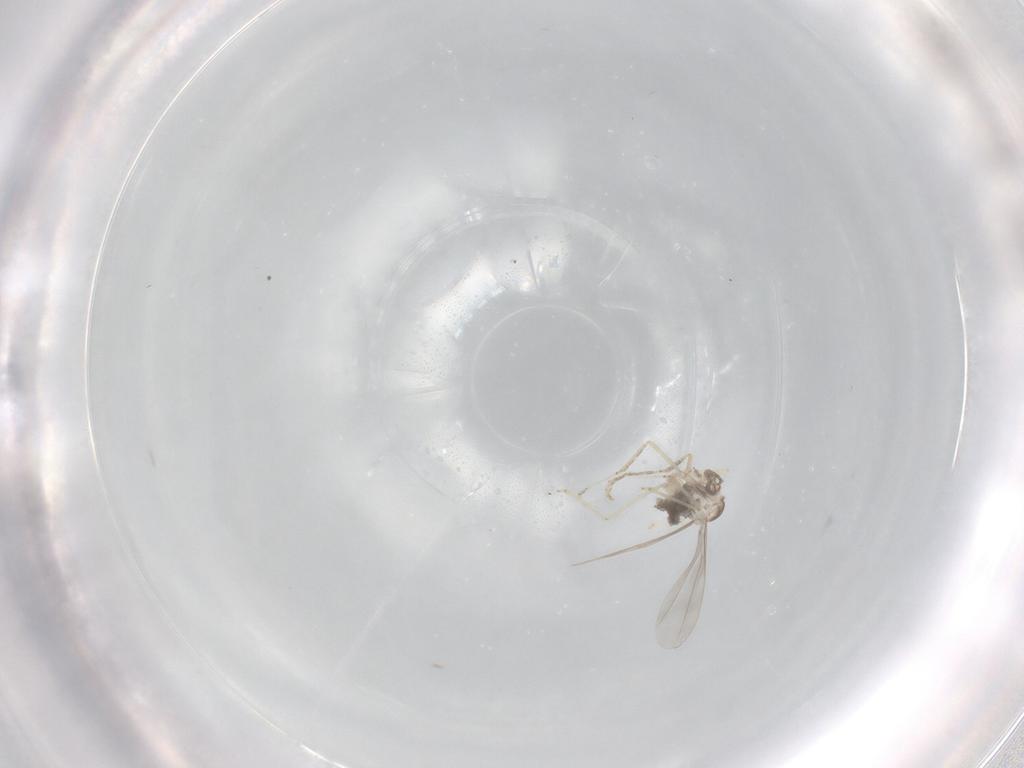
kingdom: Animalia
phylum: Arthropoda
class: Insecta
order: Diptera
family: Cecidomyiidae
